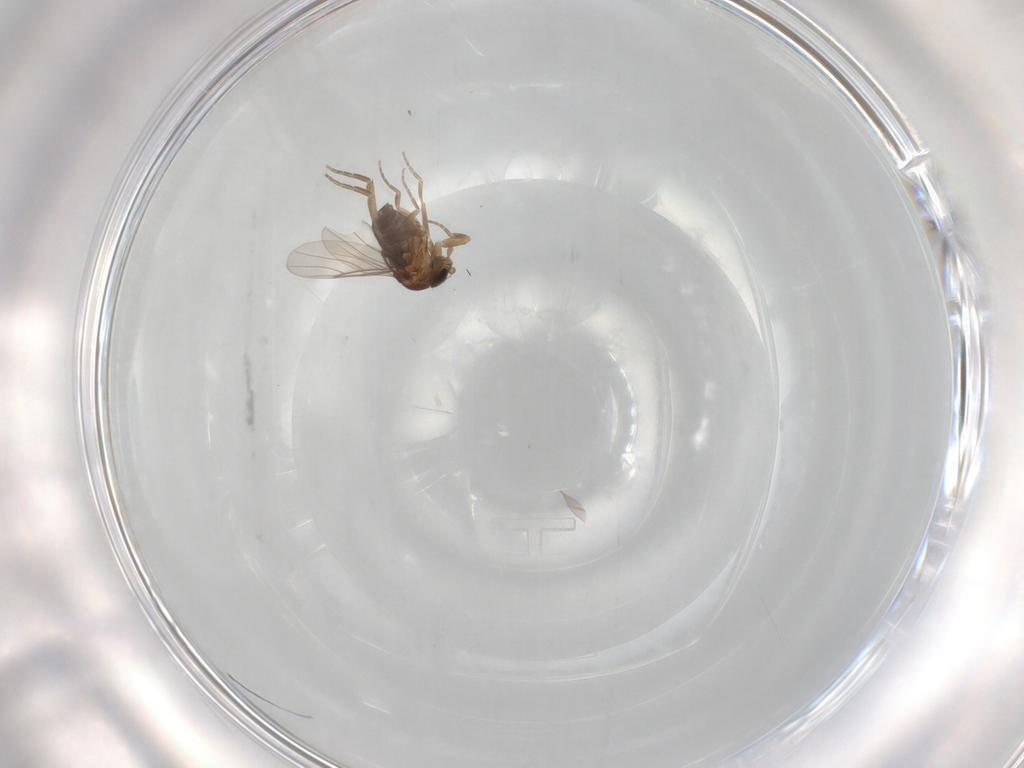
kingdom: Animalia
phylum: Arthropoda
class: Insecta
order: Diptera
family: Phoridae
